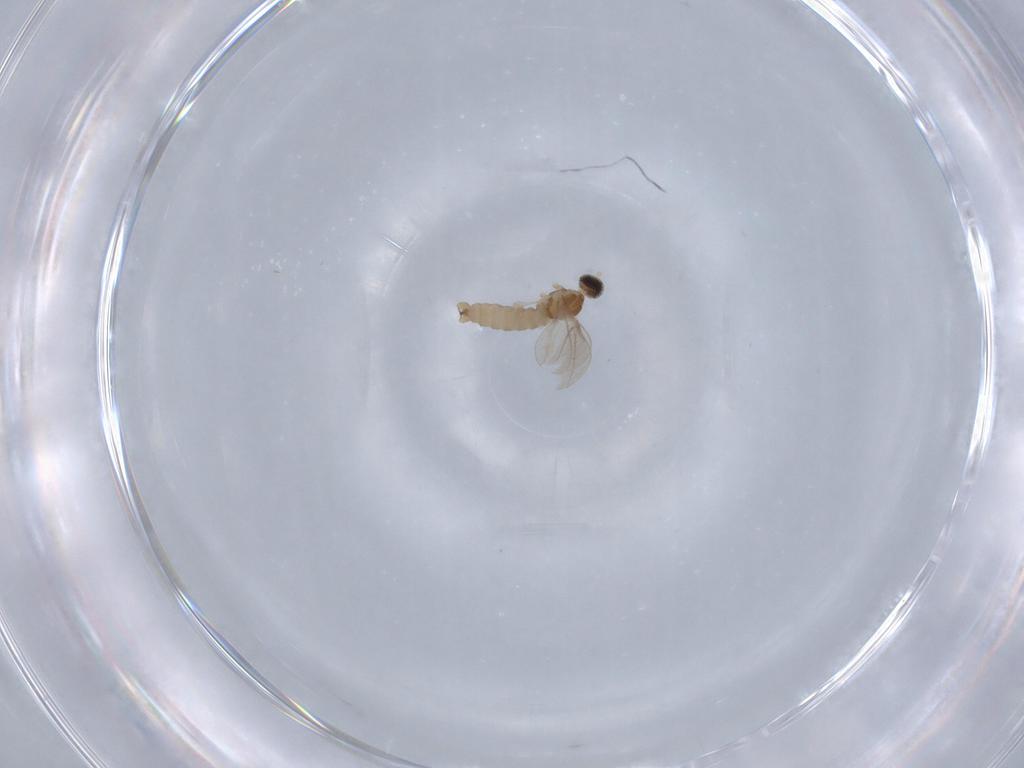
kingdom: Animalia
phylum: Arthropoda
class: Insecta
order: Diptera
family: Cecidomyiidae
